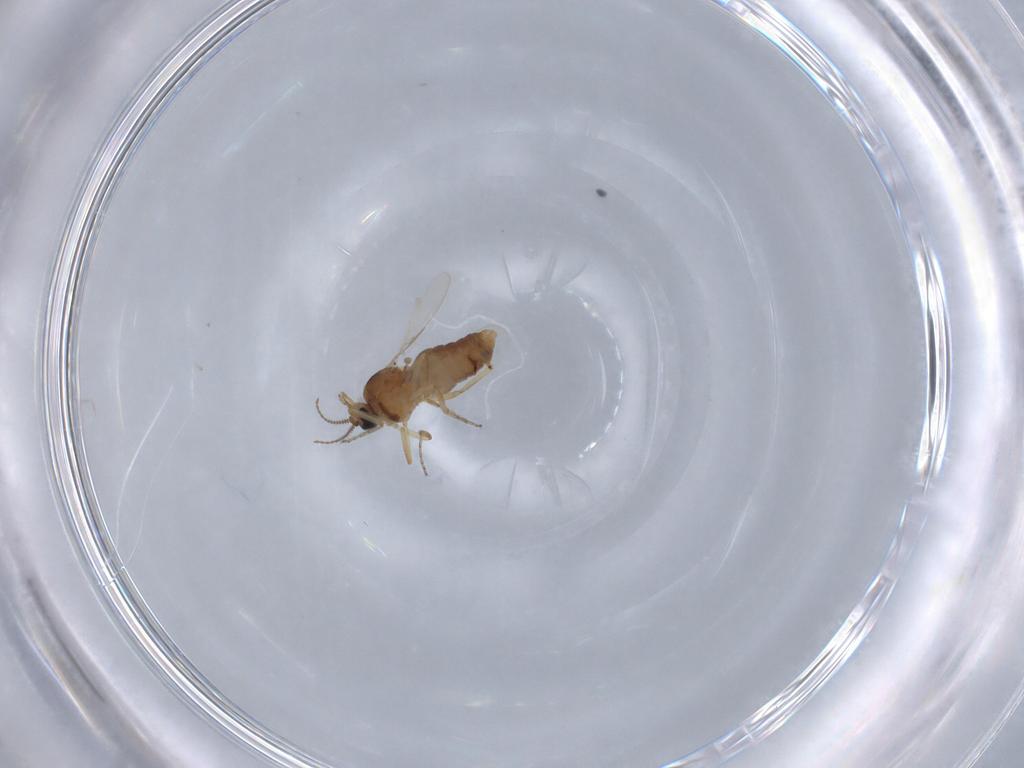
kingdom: Animalia
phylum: Arthropoda
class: Insecta
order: Diptera
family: Ceratopogonidae
